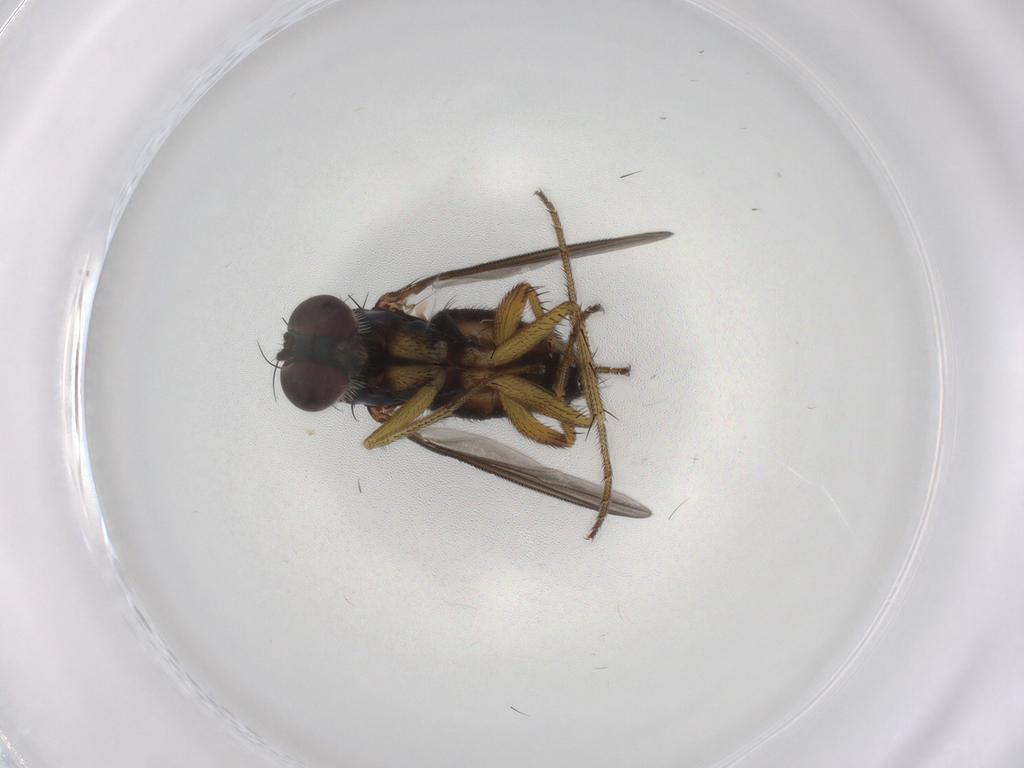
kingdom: Animalia
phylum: Arthropoda
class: Insecta
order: Diptera
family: Dolichopodidae
